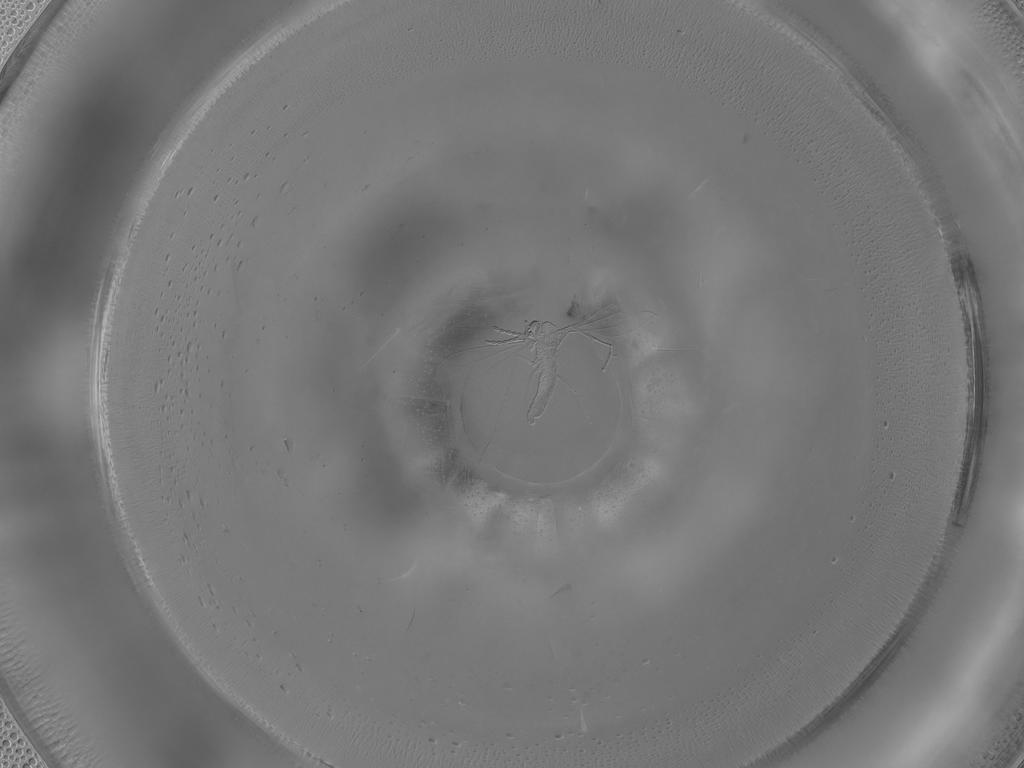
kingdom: Animalia
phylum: Arthropoda
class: Insecta
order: Diptera
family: Cecidomyiidae
